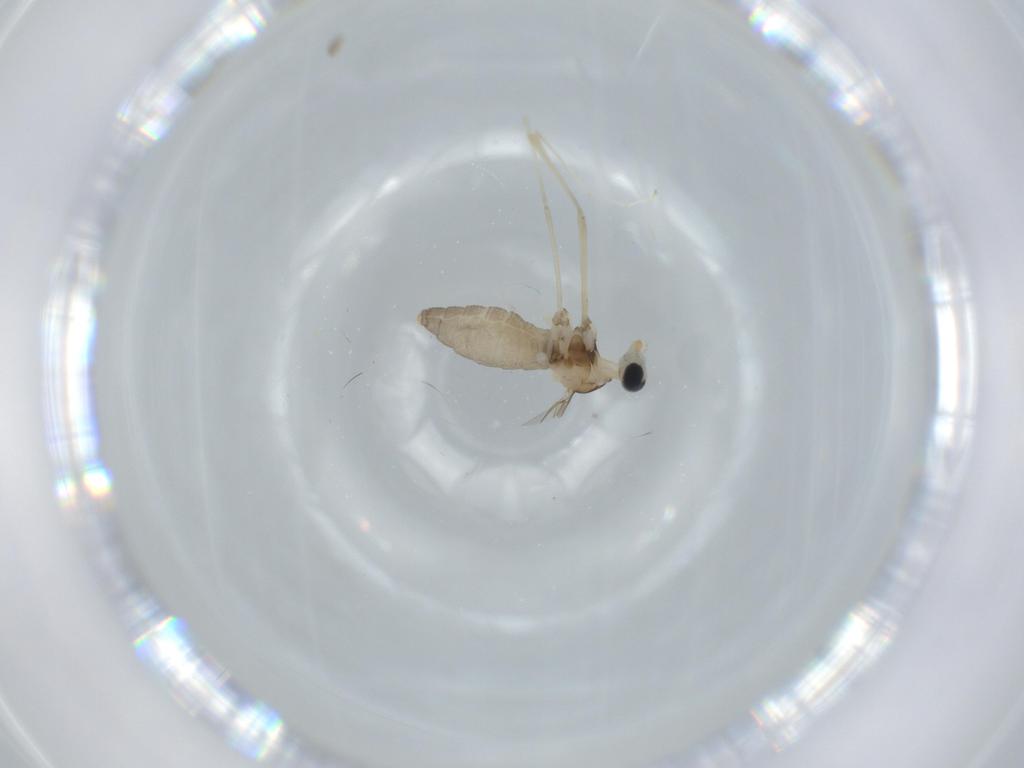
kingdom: Animalia
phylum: Arthropoda
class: Insecta
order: Diptera
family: Cecidomyiidae
